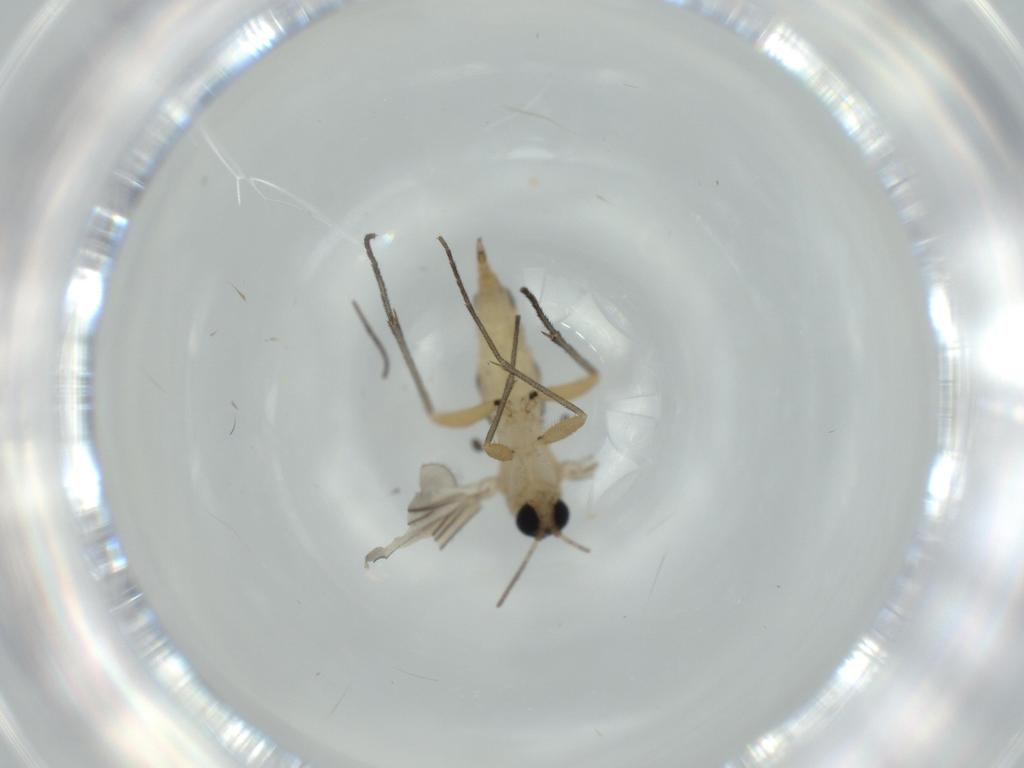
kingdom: Animalia
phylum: Arthropoda
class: Insecta
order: Diptera
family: Sciaridae
